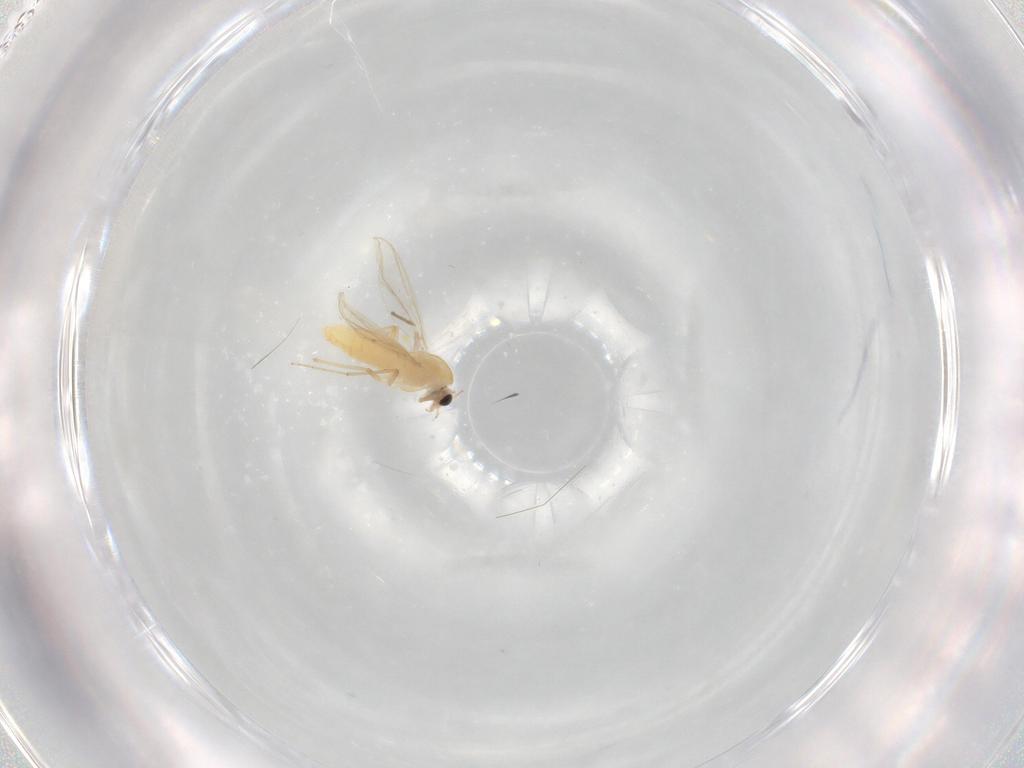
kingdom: Animalia
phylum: Arthropoda
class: Insecta
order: Diptera
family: Chironomidae
